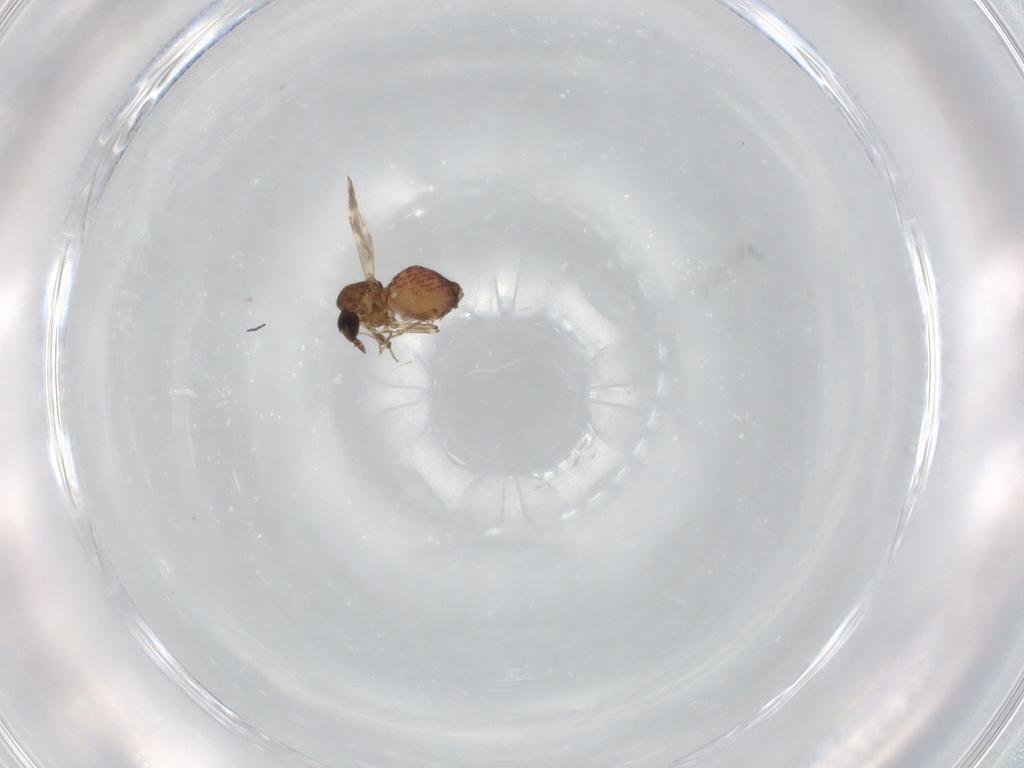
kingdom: Animalia
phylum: Arthropoda
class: Insecta
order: Diptera
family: Ceratopogonidae
